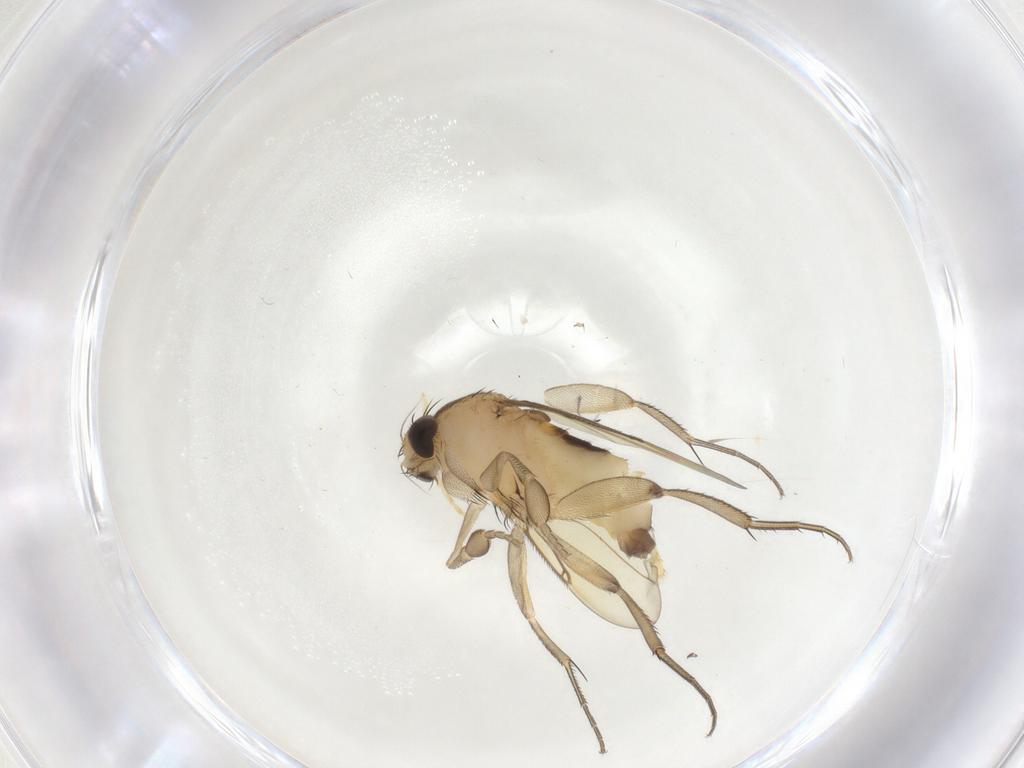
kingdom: Animalia
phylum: Arthropoda
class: Insecta
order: Diptera
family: Phoridae
